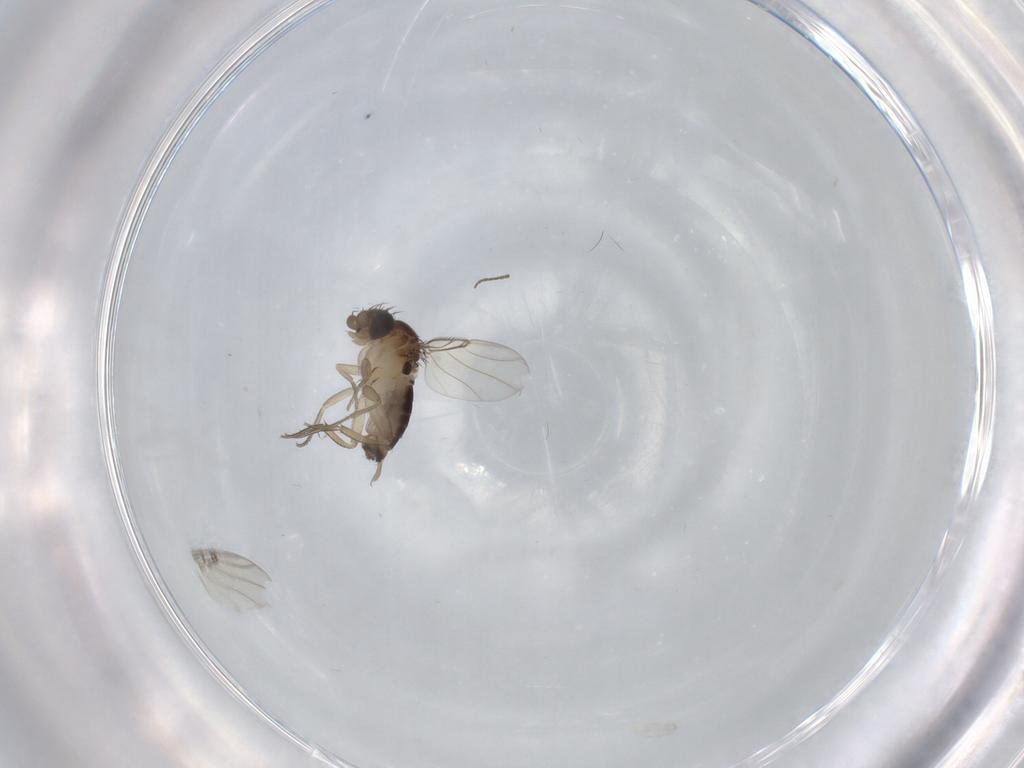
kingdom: Animalia
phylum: Arthropoda
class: Insecta
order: Diptera
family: Phoridae
